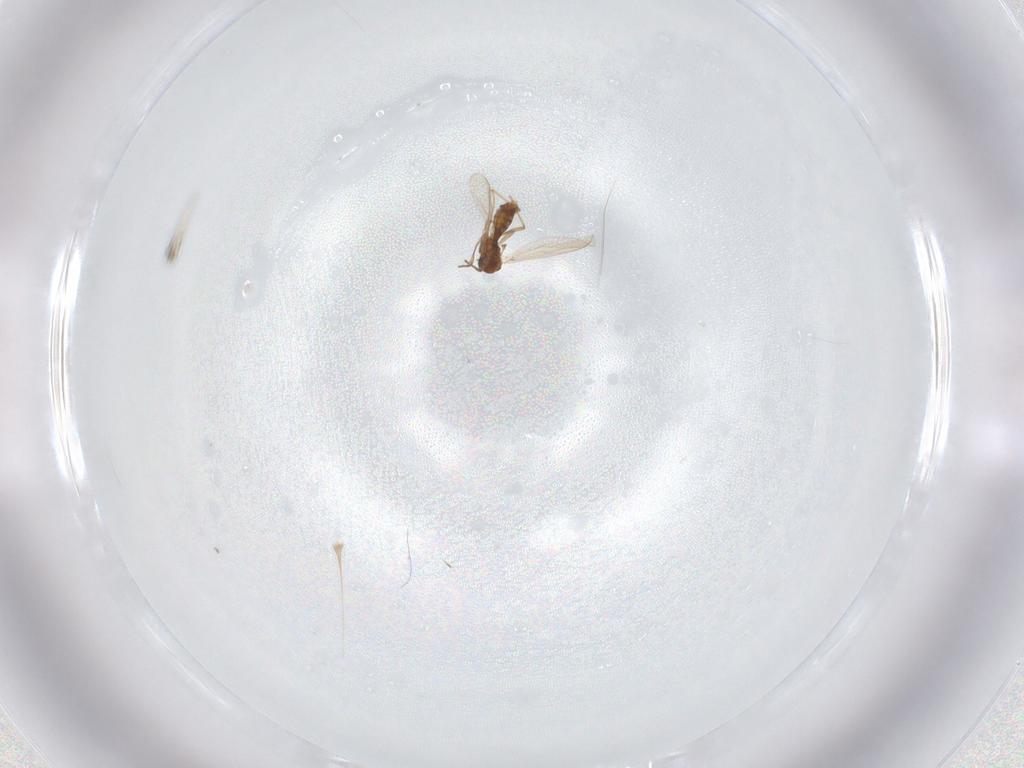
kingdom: Animalia
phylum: Arthropoda
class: Insecta
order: Diptera
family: Chironomidae
